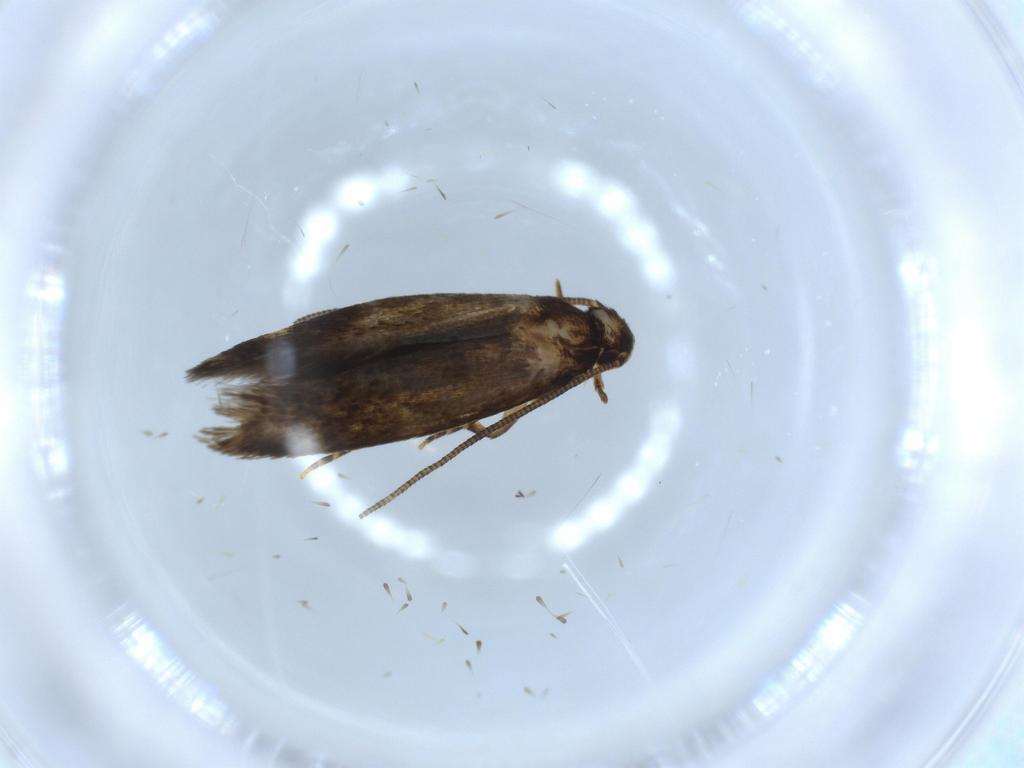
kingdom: Animalia
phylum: Arthropoda
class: Insecta
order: Lepidoptera
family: Tineidae
